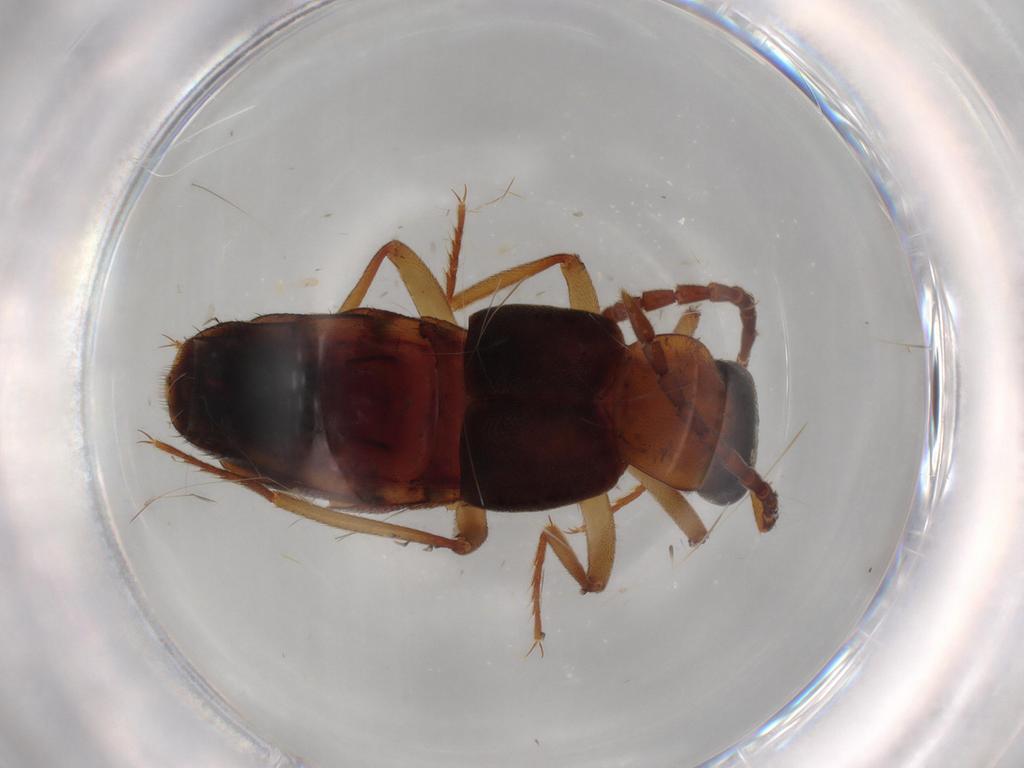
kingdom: Animalia
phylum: Arthropoda
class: Insecta
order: Coleoptera
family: Staphylinidae
